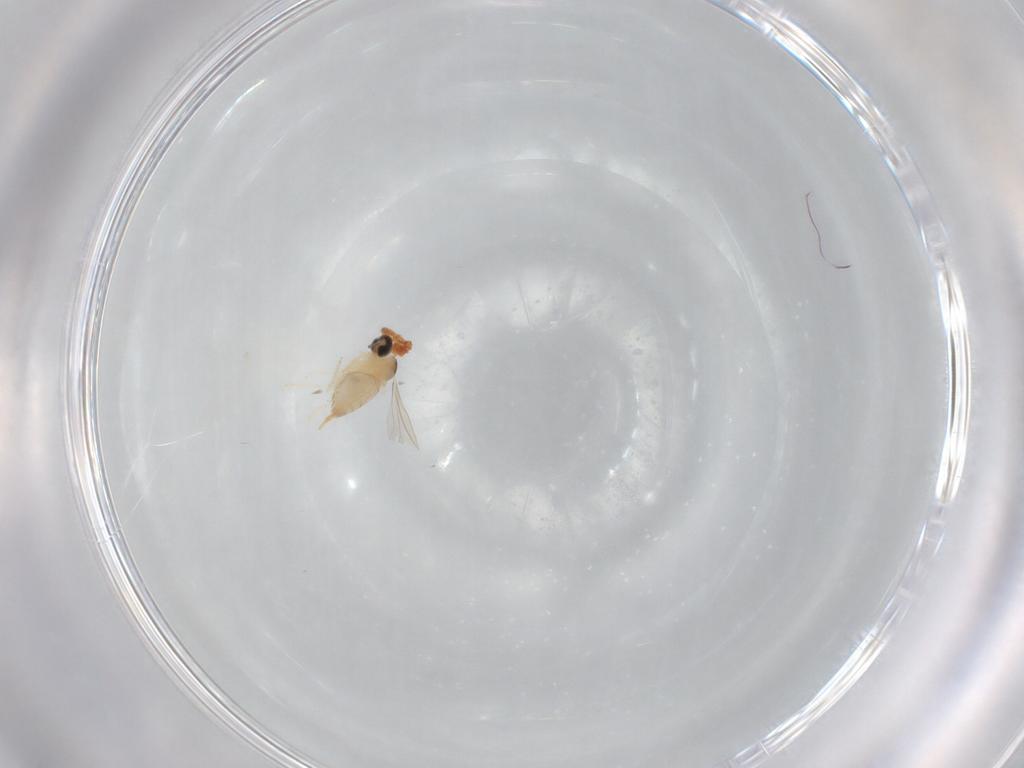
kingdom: Animalia
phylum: Arthropoda
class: Insecta
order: Diptera
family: Cecidomyiidae
